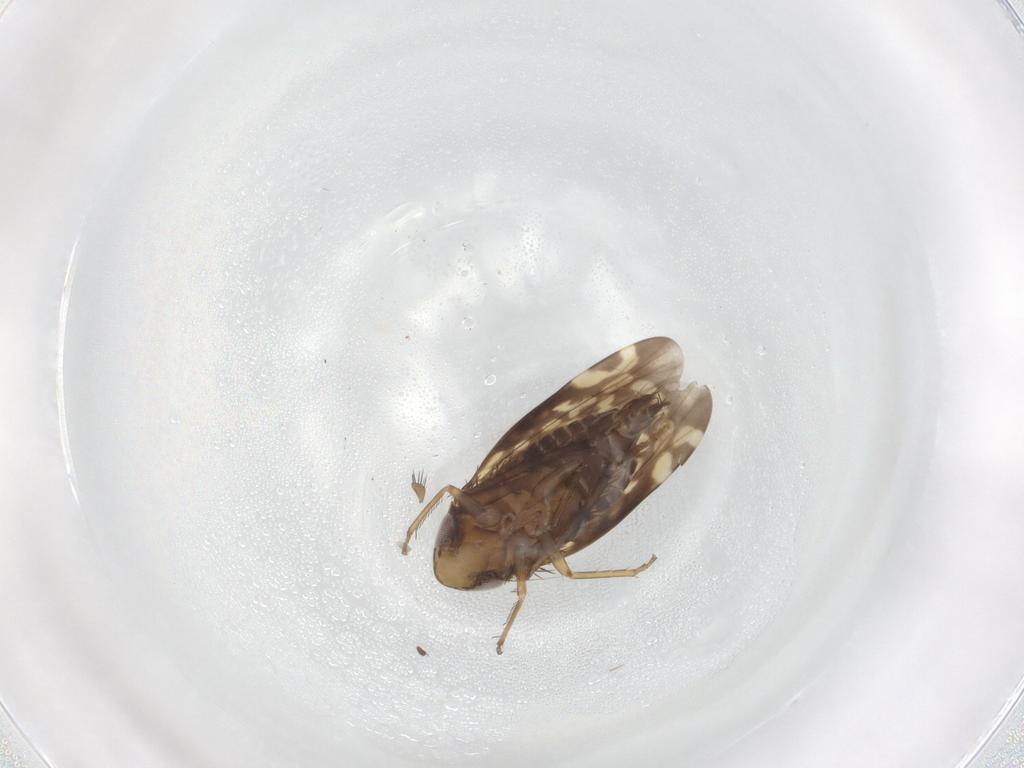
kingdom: Animalia
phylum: Arthropoda
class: Insecta
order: Hemiptera
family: Cicadellidae
